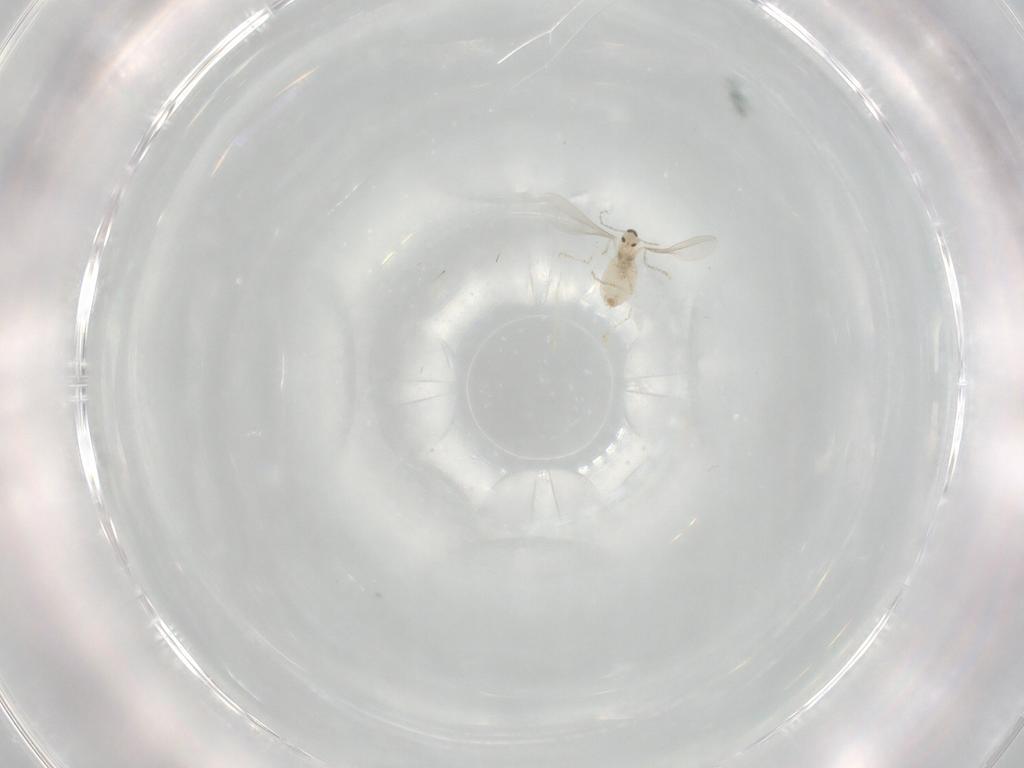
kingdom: Animalia
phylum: Arthropoda
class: Insecta
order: Diptera
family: Cecidomyiidae
